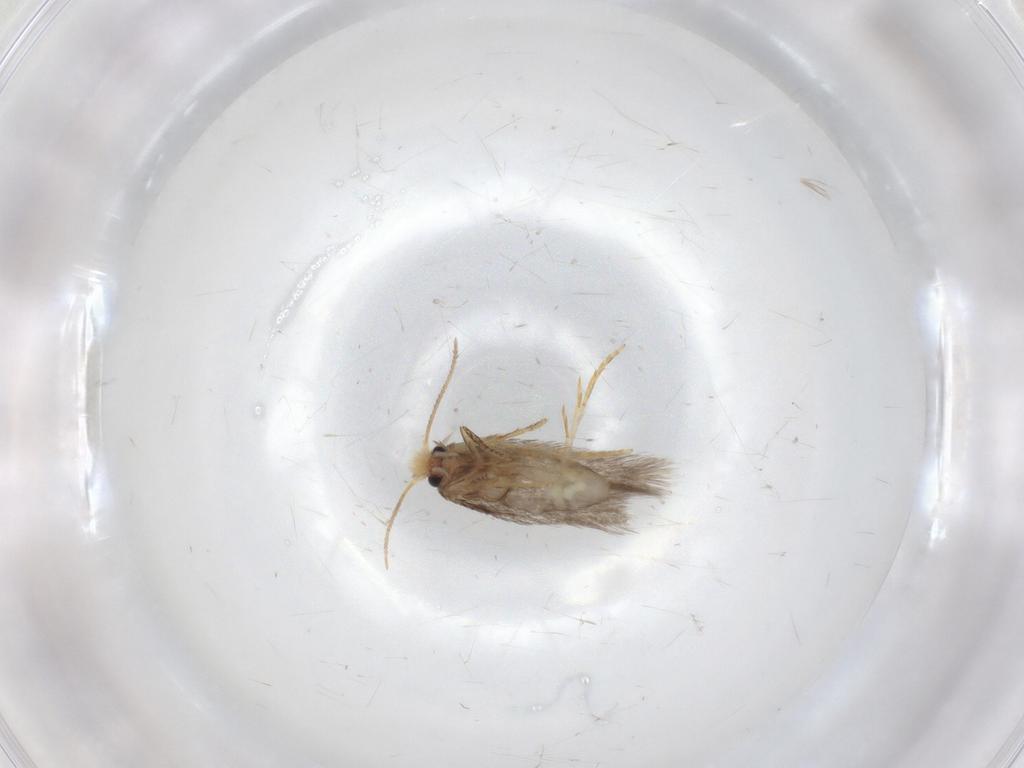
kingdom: Animalia
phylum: Arthropoda
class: Insecta
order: Lepidoptera
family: Nepticulidae
